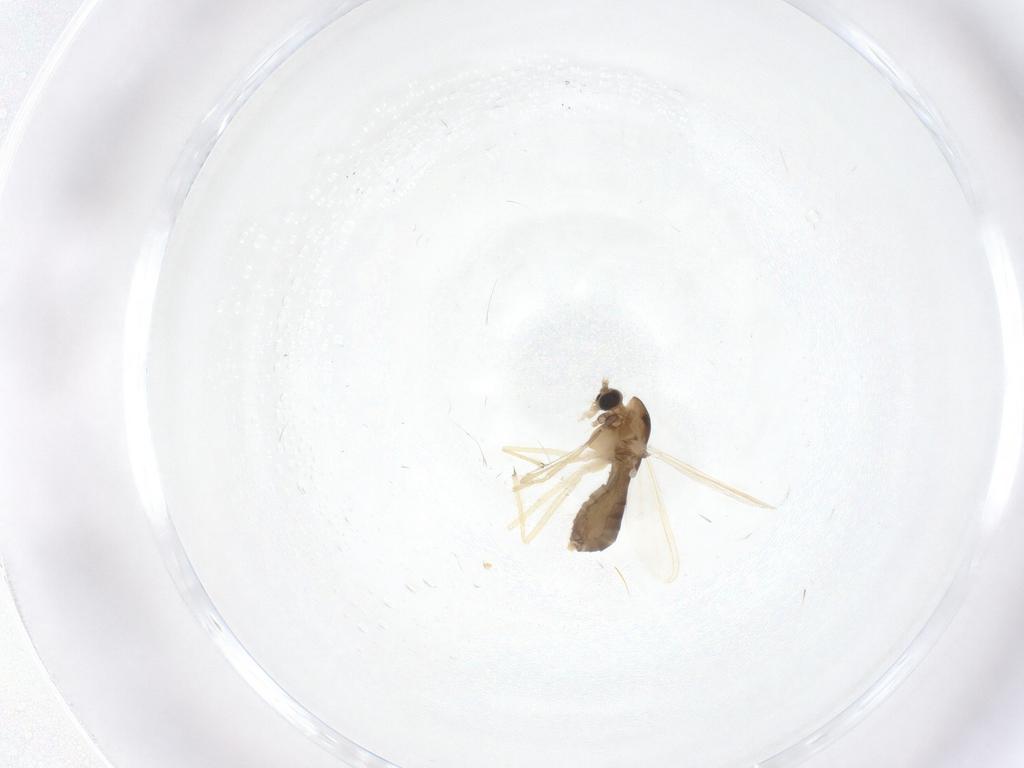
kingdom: Animalia
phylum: Arthropoda
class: Insecta
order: Diptera
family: Chironomidae
